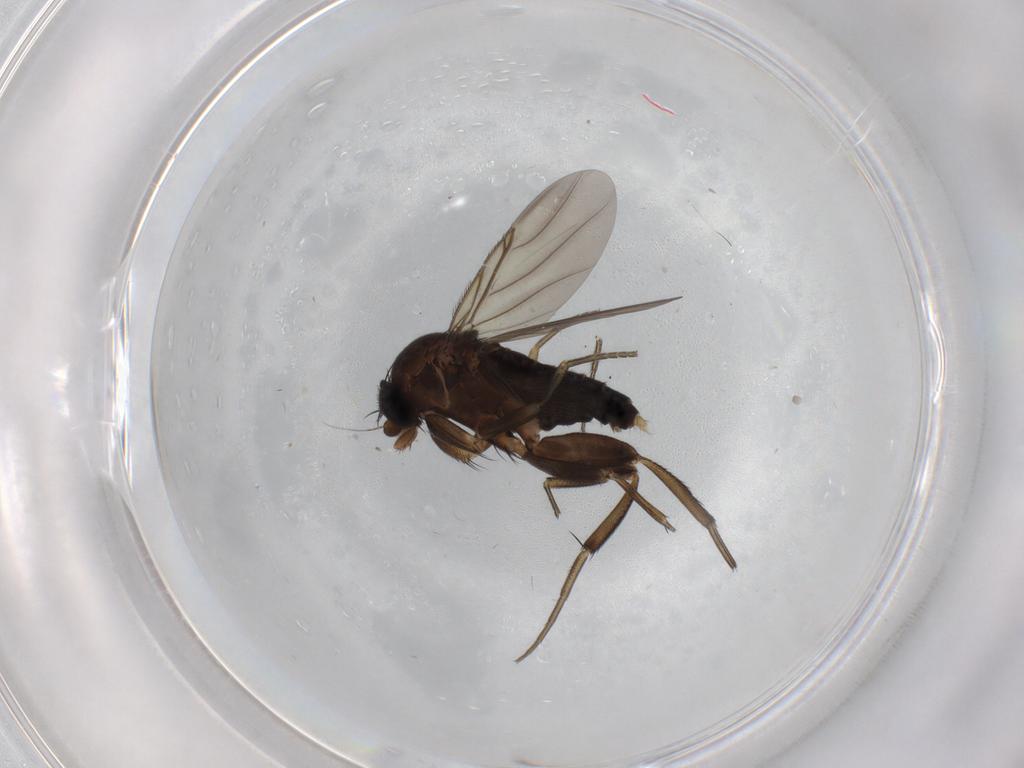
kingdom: Animalia
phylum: Arthropoda
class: Insecta
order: Diptera
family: Phoridae
